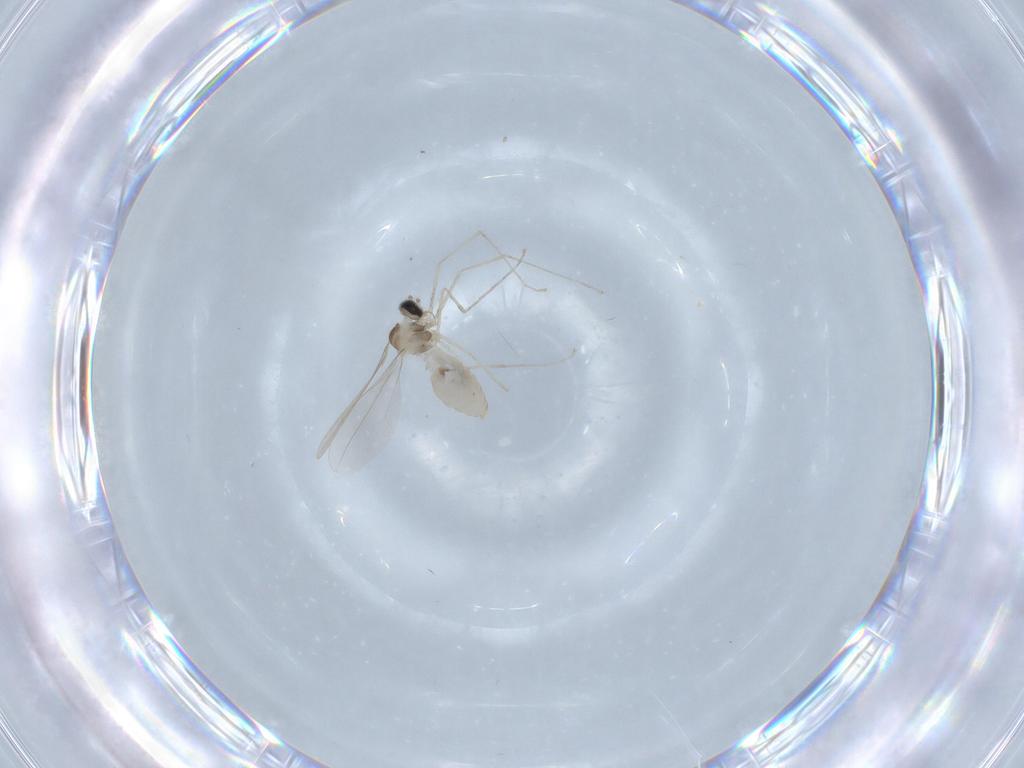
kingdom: Animalia
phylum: Arthropoda
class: Insecta
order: Diptera
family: Cecidomyiidae
